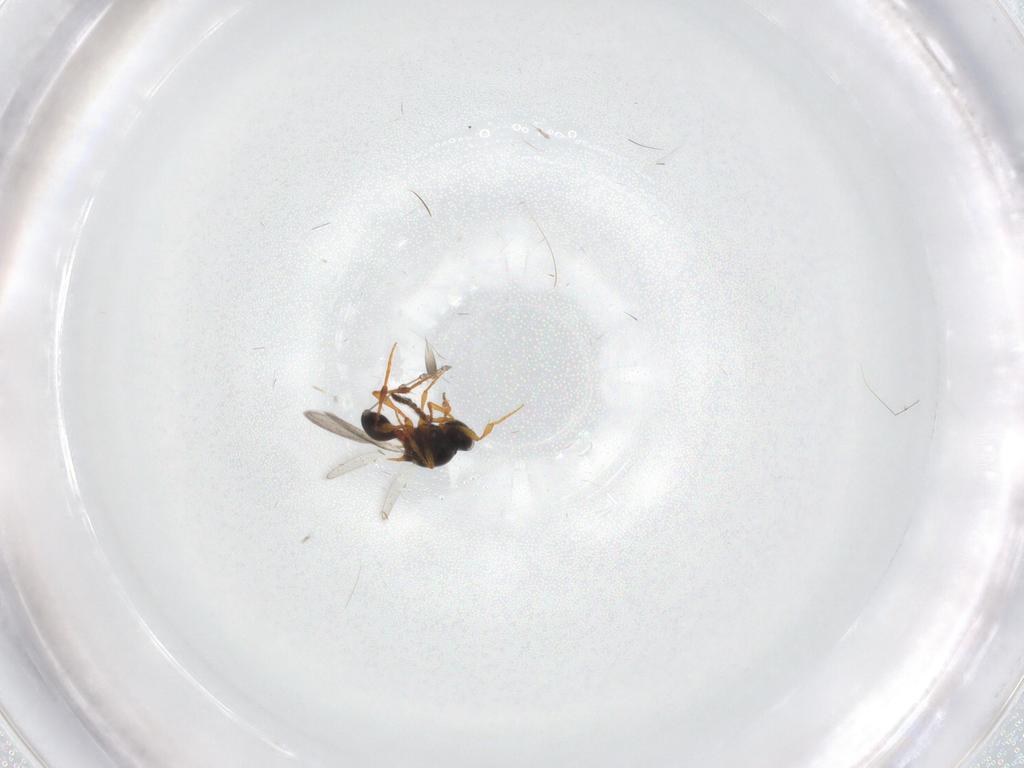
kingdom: Animalia
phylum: Arthropoda
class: Insecta
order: Hymenoptera
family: Platygastridae
